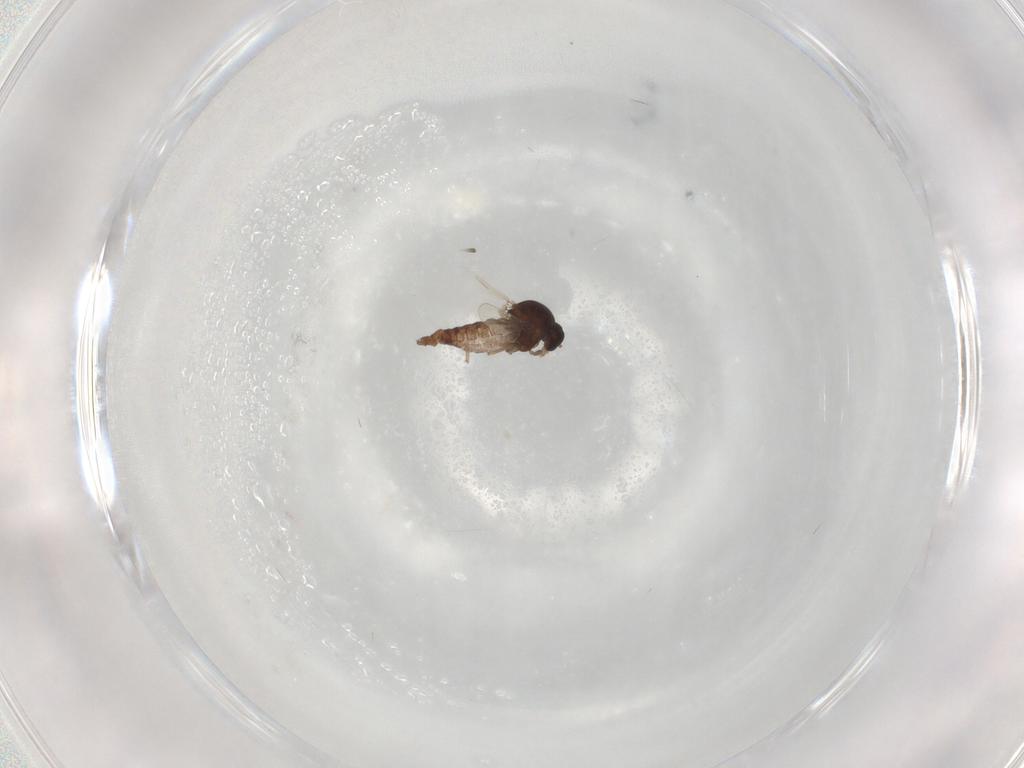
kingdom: Animalia
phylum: Arthropoda
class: Insecta
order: Diptera
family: Ceratopogonidae
